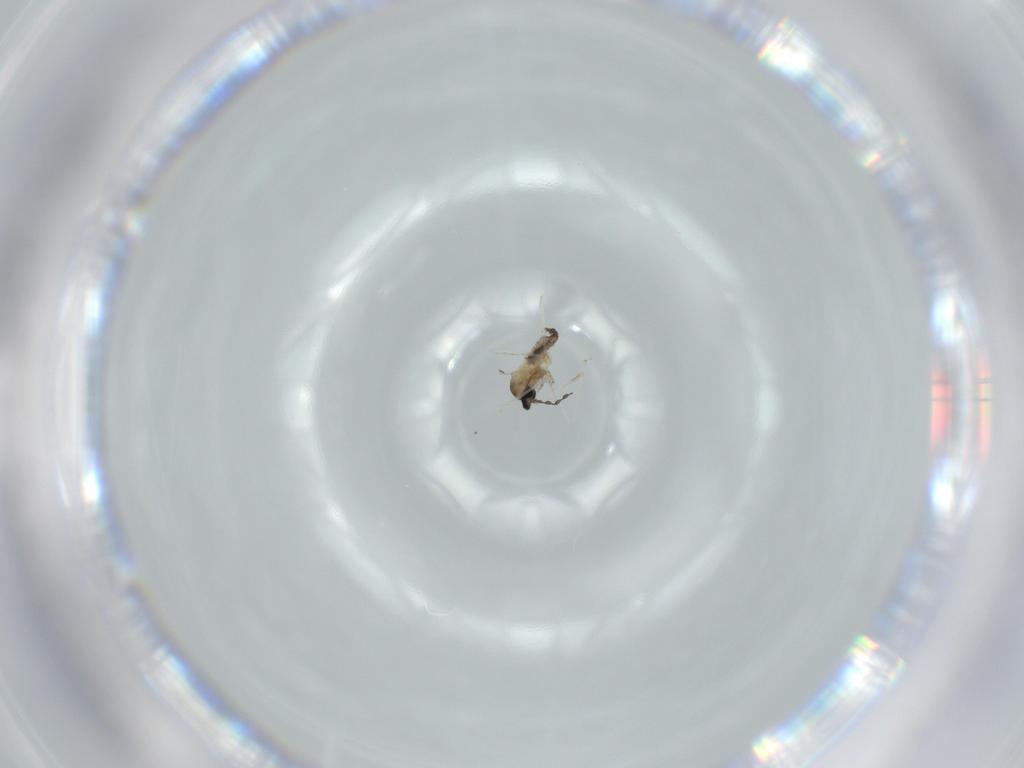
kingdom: Animalia
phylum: Arthropoda
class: Insecta
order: Diptera
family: Cecidomyiidae
